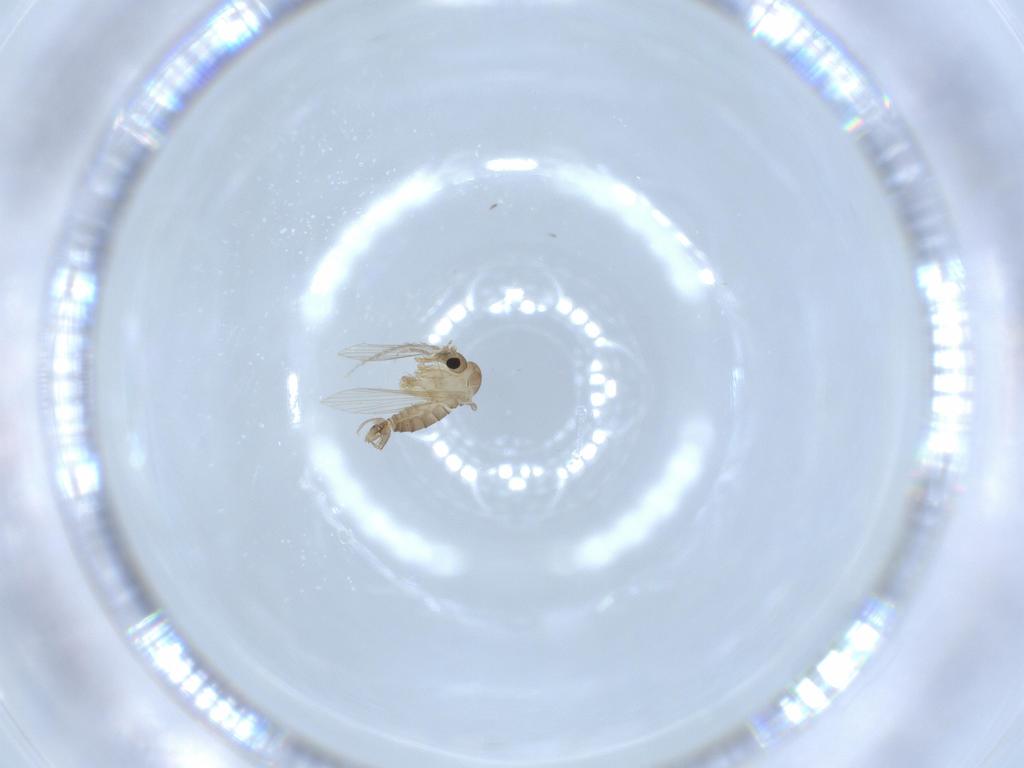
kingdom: Animalia
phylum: Arthropoda
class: Insecta
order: Diptera
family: Psychodidae
